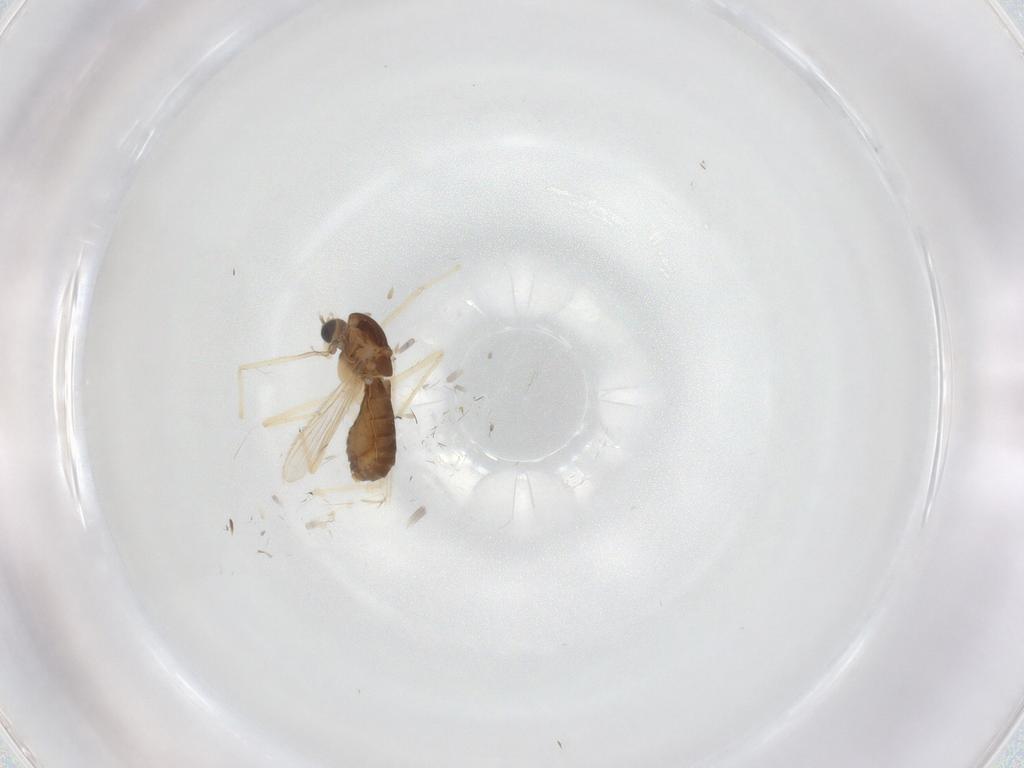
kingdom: Animalia
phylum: Arthropoda
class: Insecta
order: Diptera
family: Chironomidae
